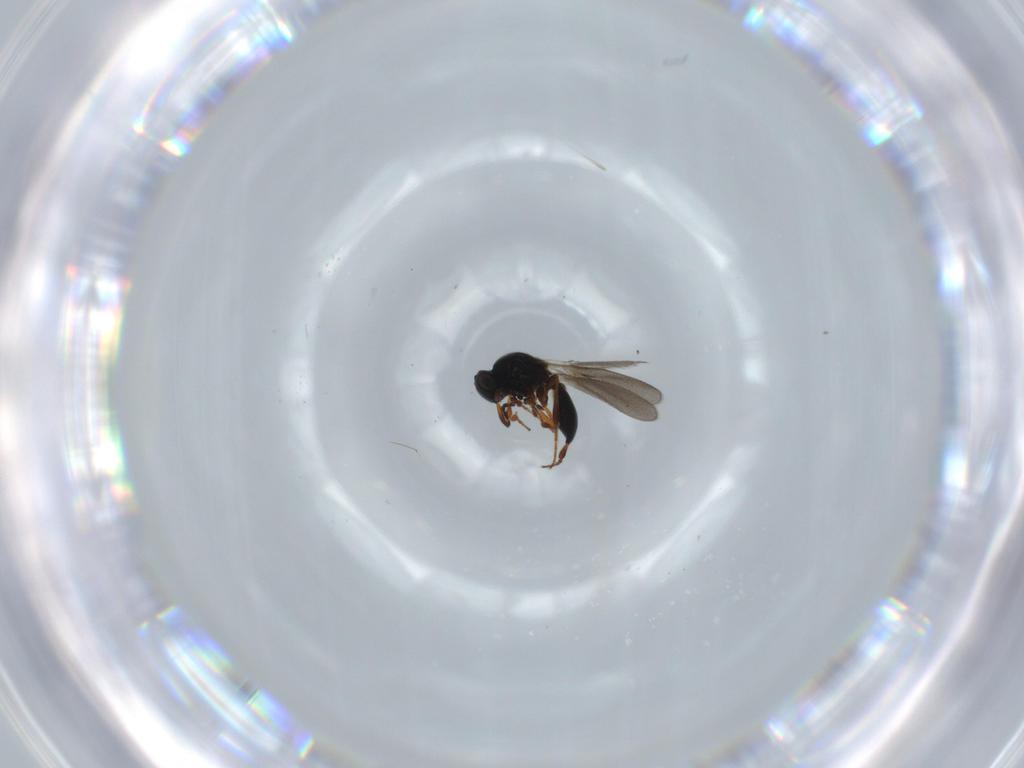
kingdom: Animalia
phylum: Arthropoda
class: Insecta
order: Hymenoptera
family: Platygastridae
